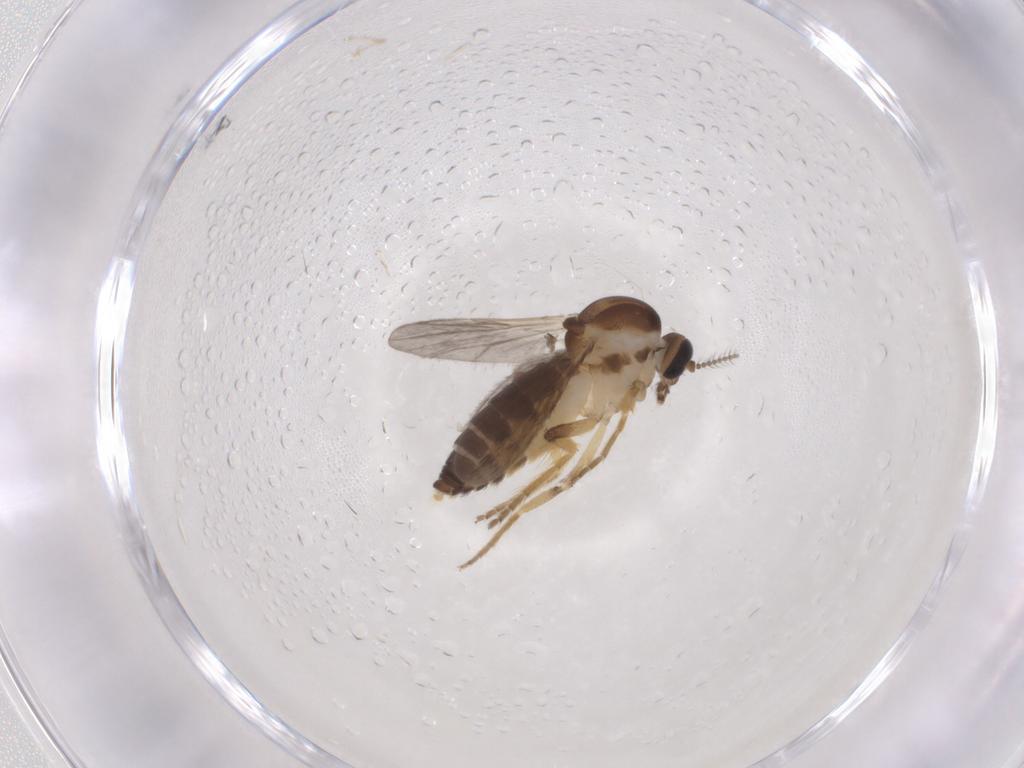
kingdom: Animalia
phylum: Arthropoda
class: Insecta
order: Diptera
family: Ceratopogonidae
